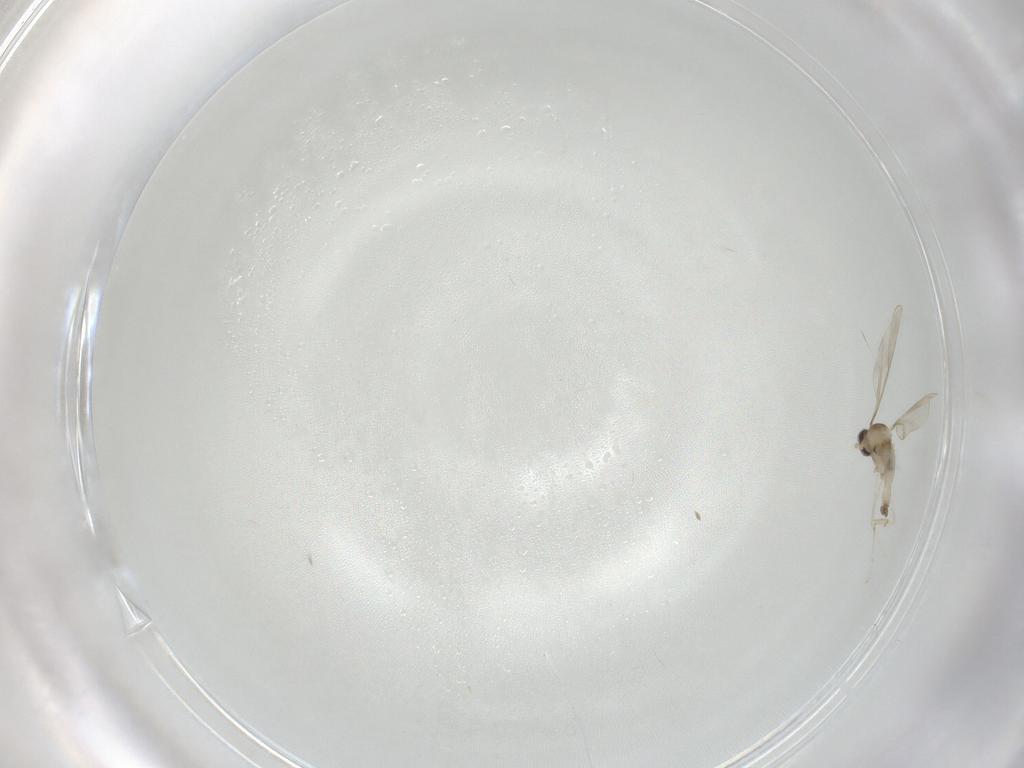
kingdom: Animalia
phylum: Arthropoda
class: Insecta
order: Diptera
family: Cecidomyiidae
